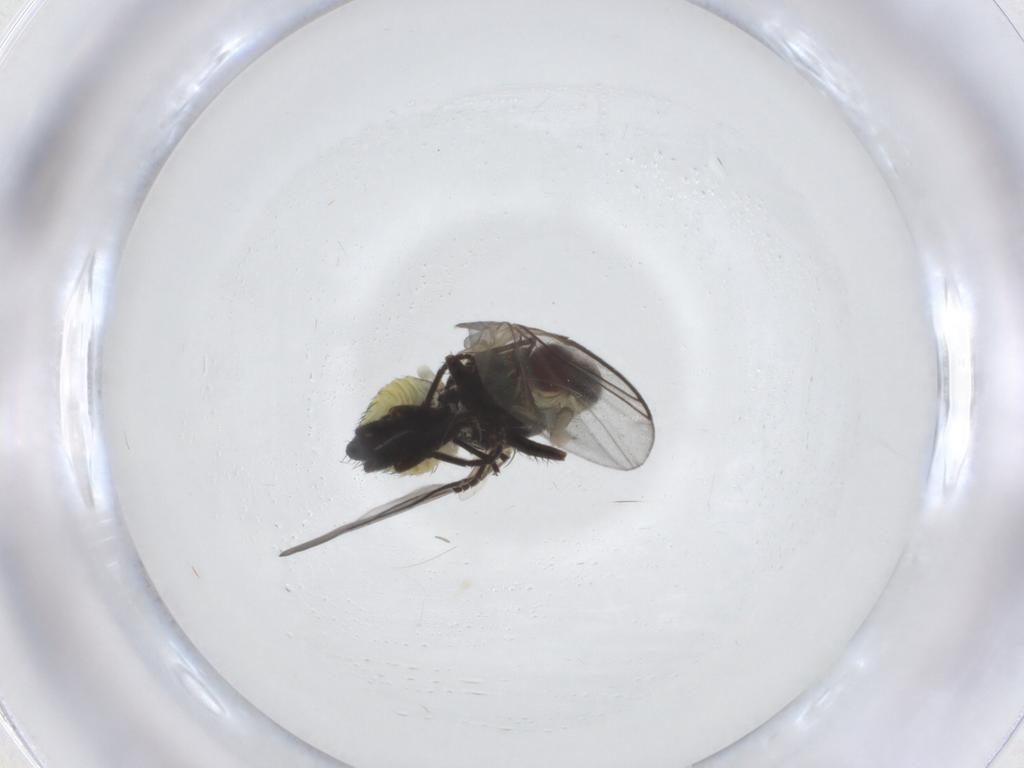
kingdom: Animalia
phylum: Arthropoda
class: Insecta
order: Diptera
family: Agromyzidae
